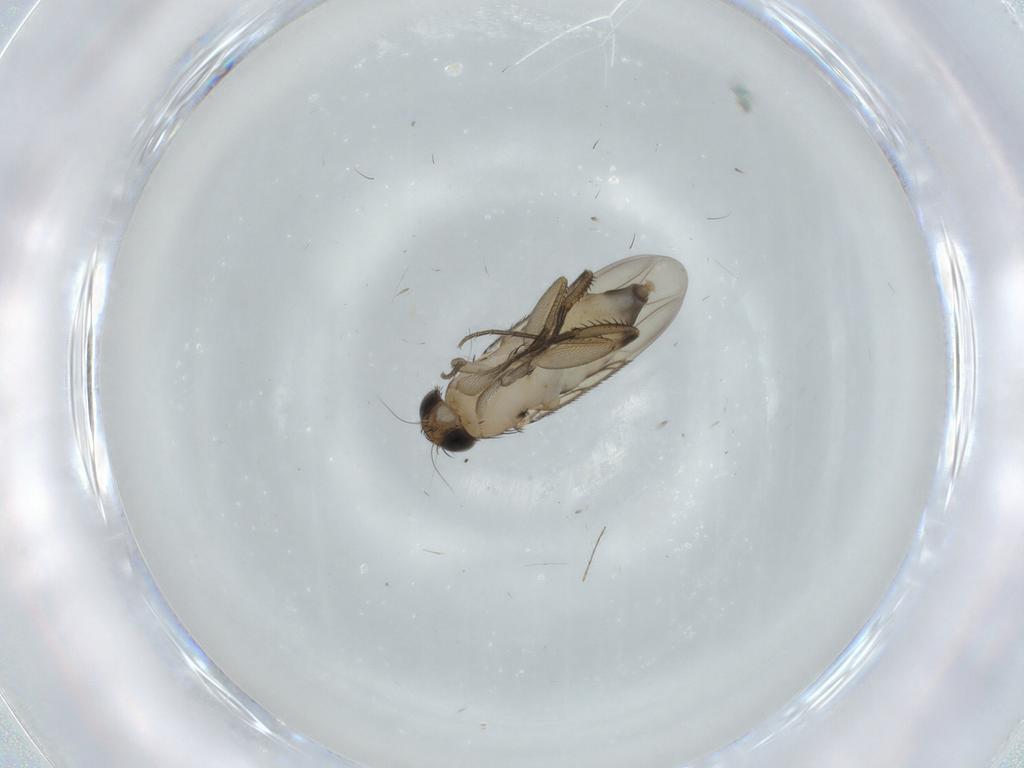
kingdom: Animalia
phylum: Arthropoda
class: Insecta
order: Diptera
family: Phoridae
